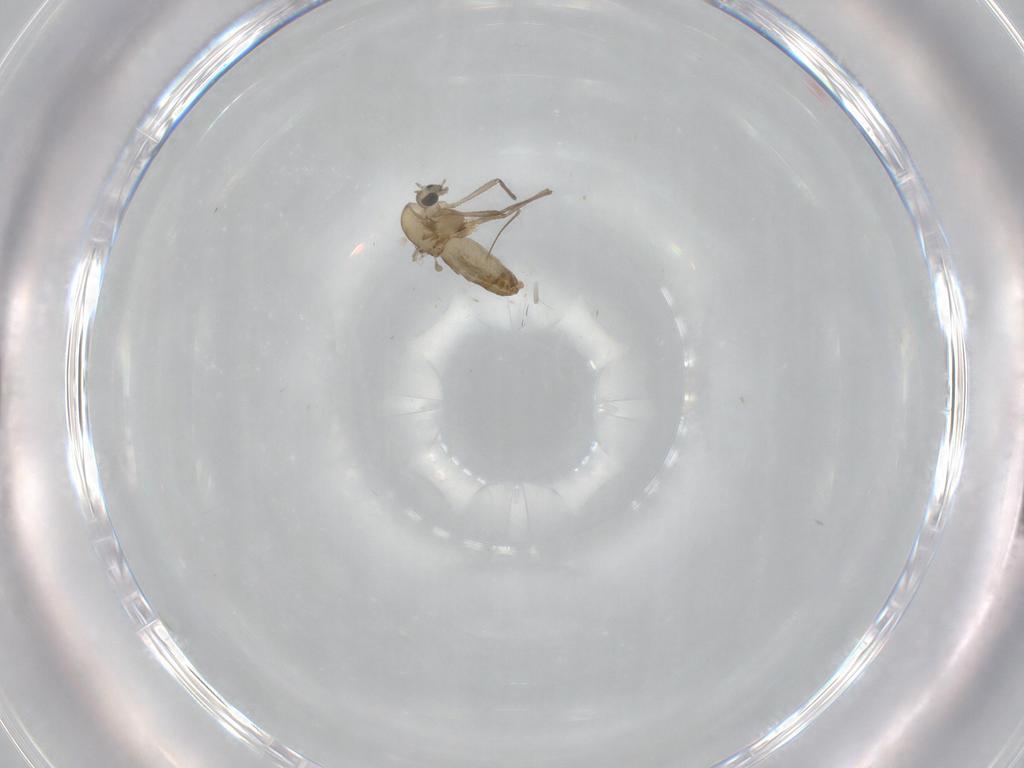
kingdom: Animalia
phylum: Arthropoda
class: Insecta
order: Diptera
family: Chironomidae
